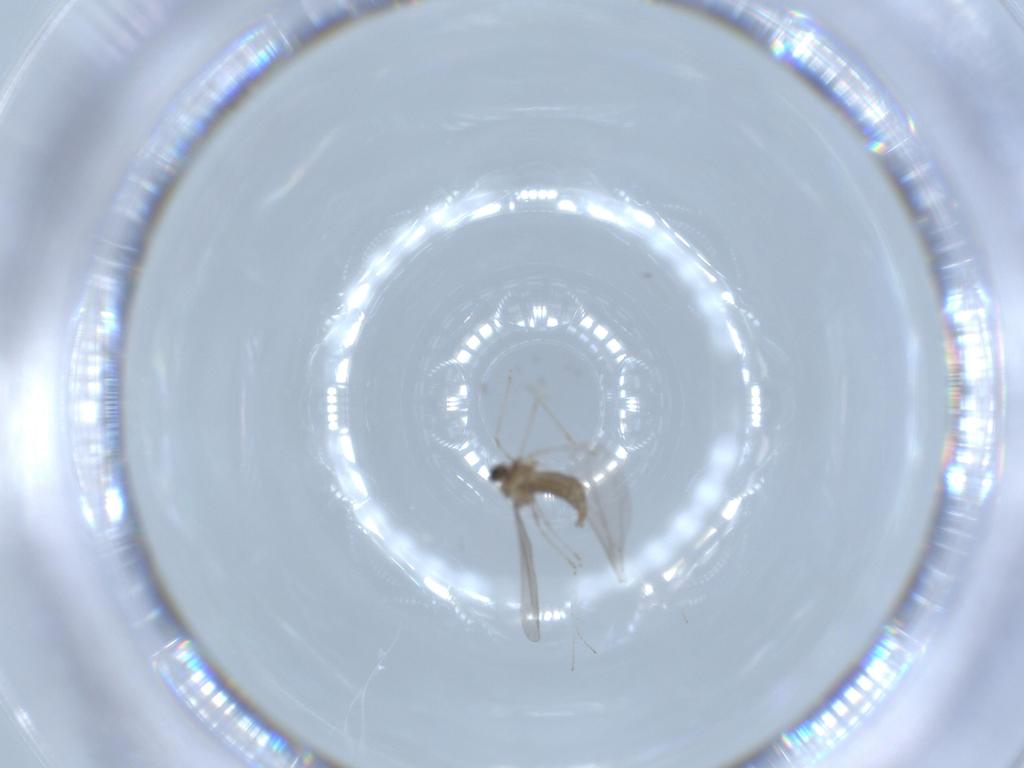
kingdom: Animalia
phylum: Arthropoda
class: Insecta
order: Diptera
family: Cecidomyiidae
